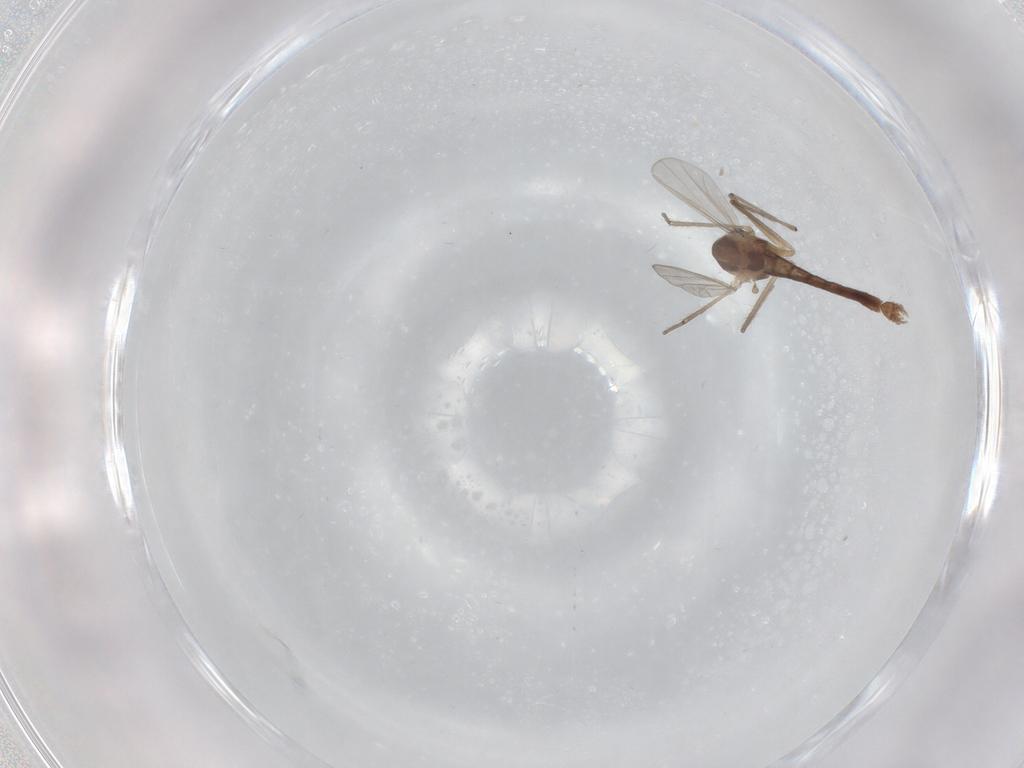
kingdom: Animalia
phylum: Arthropoda
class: Insecta
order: Diptera
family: Chironomidae
